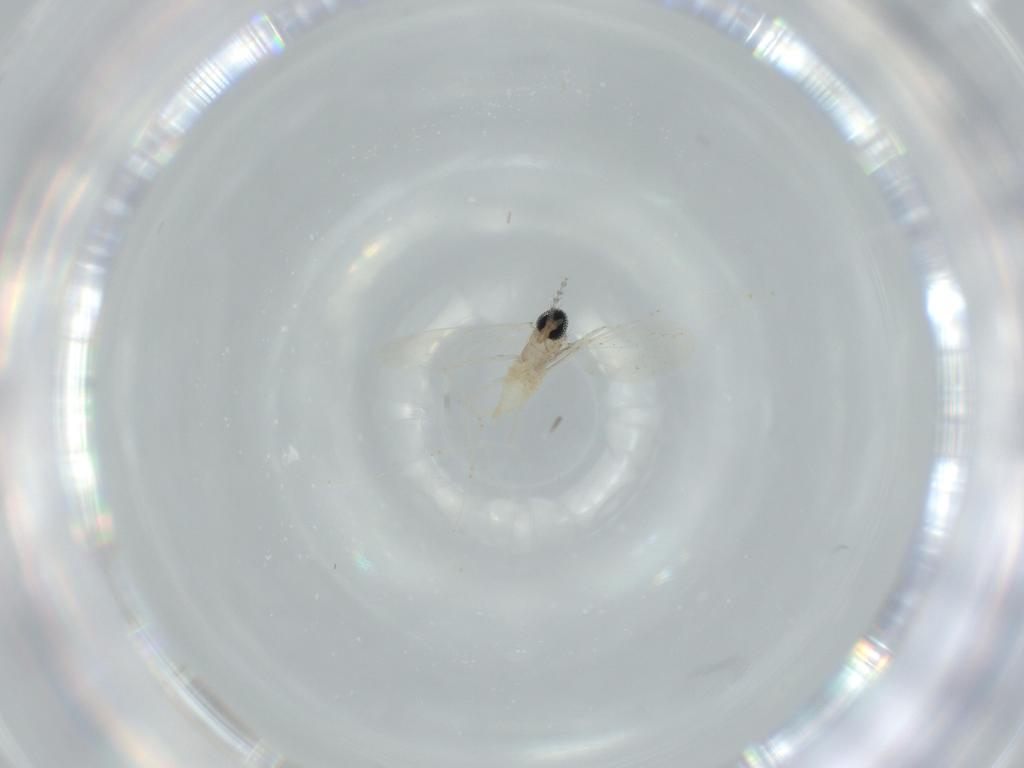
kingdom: Animalia
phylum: Arthropoda
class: Insecta
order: Diptera
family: Cecidomyiidae
